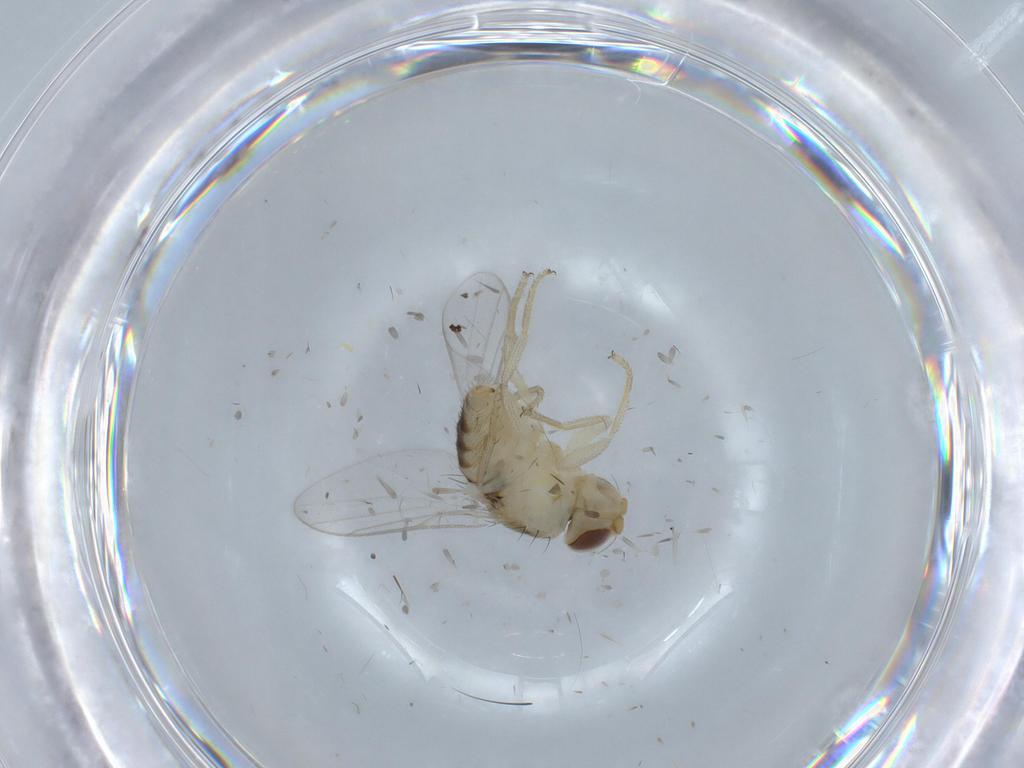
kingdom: Animalia
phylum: Arthropoda
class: Insecta
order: Diptera
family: Chloropidae
